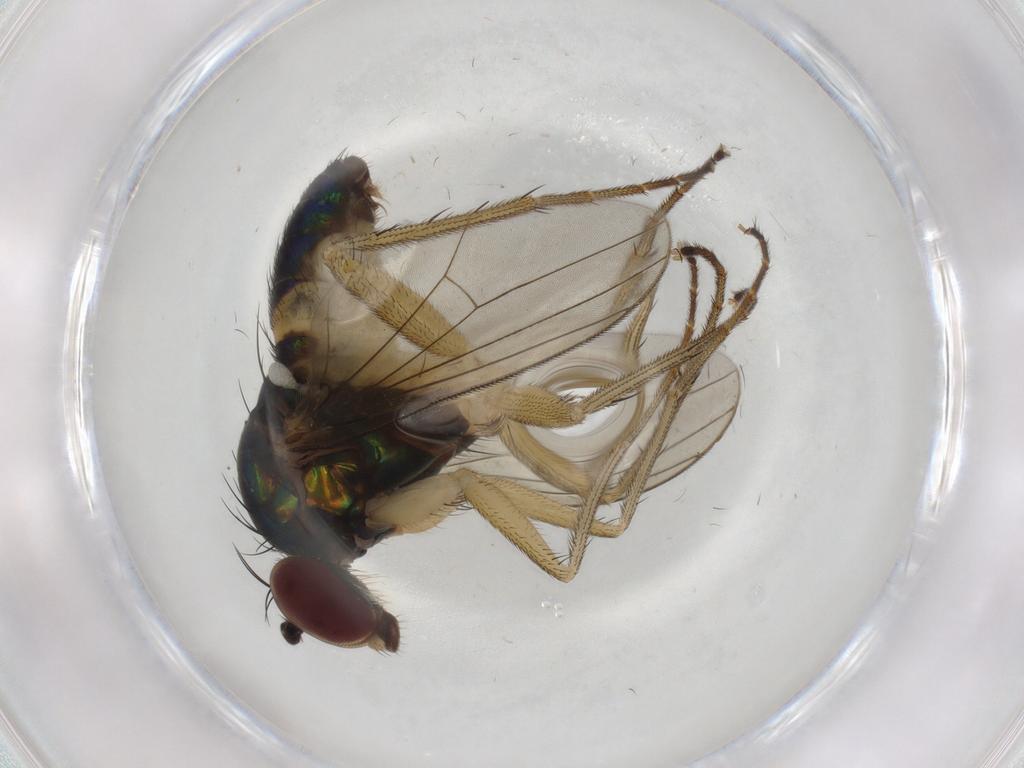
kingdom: Animalia
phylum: Arthropoda
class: Insecta
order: Diptera
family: Dolichopodidae
